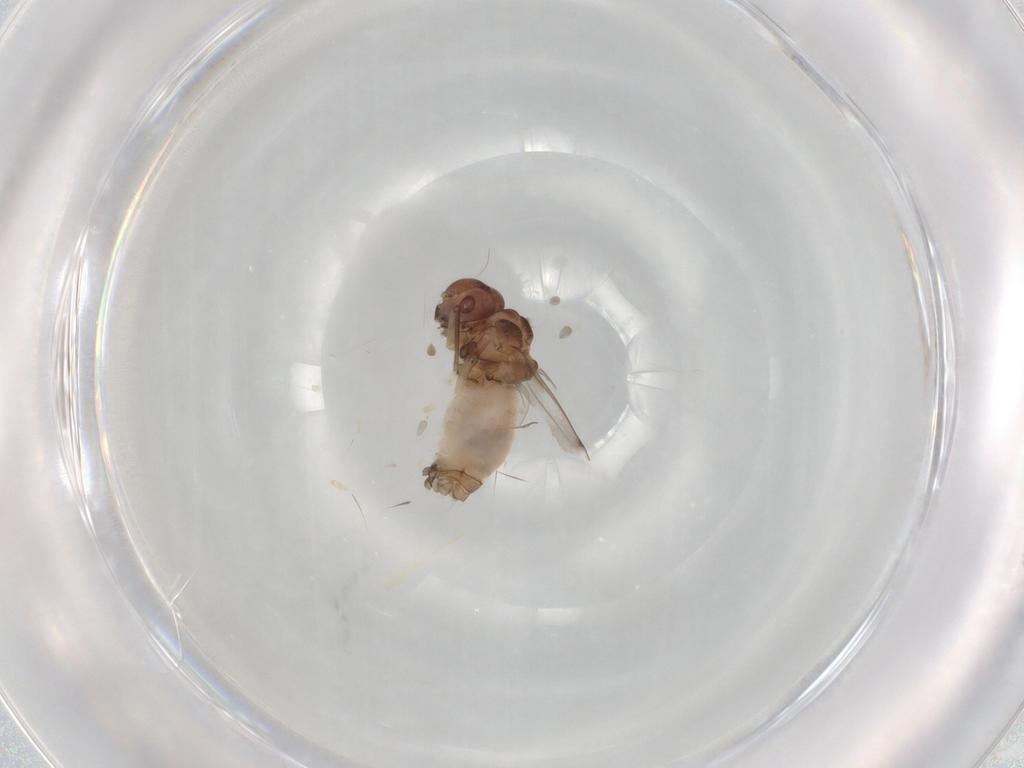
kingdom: Animalia
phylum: Arthropoda
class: Insecta
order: Psocodea
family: Peripsocidae
